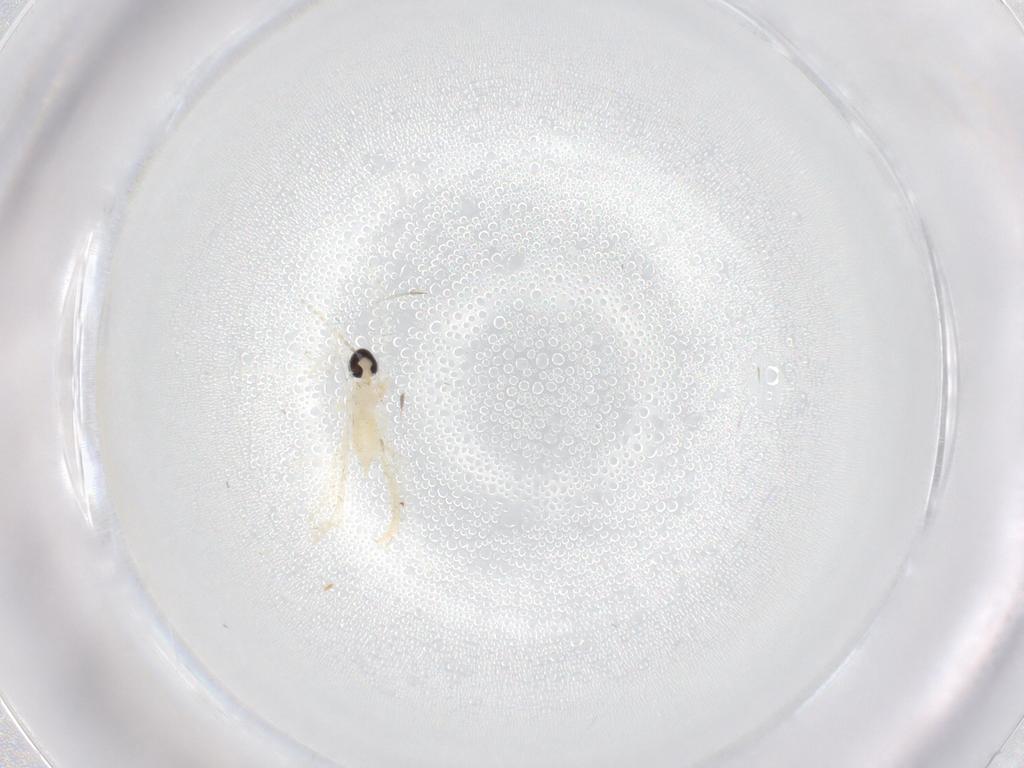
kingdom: Animalia
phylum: Arthropoda
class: Insecta
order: Diptera
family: Cecidomyiidae
